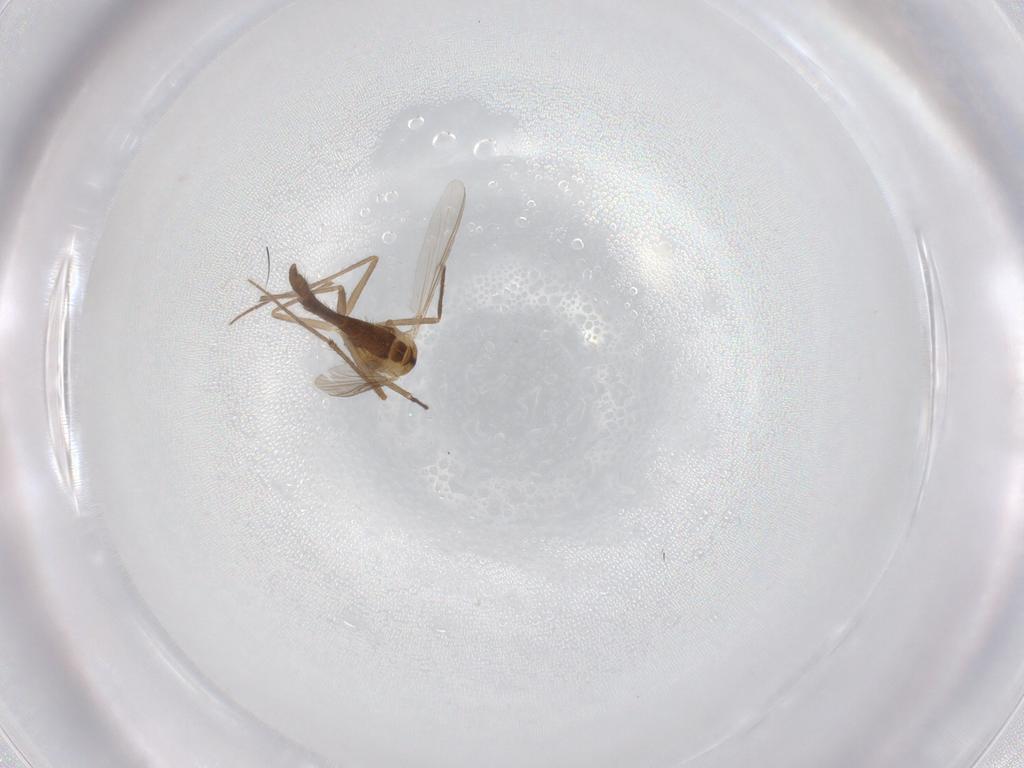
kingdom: Animalia
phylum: Arthropoda
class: Insecta
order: Diptera
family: Chironomidae
